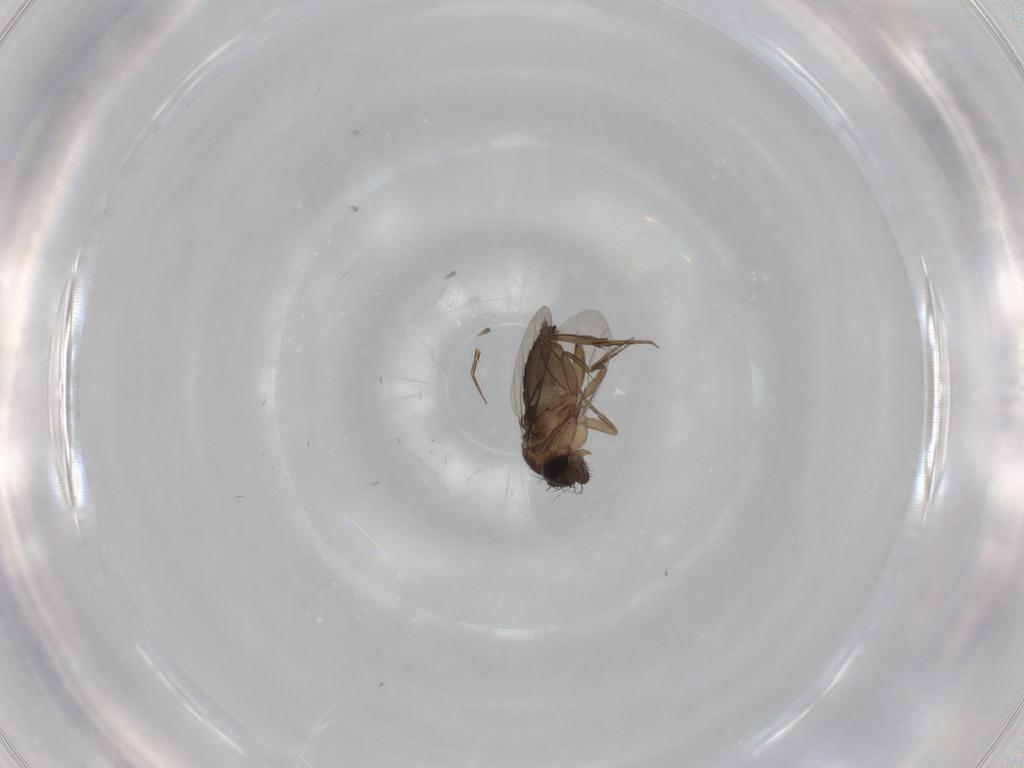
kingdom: Animalia
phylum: Arthropoda
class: Insecta
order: Diptera
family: Phoridae
